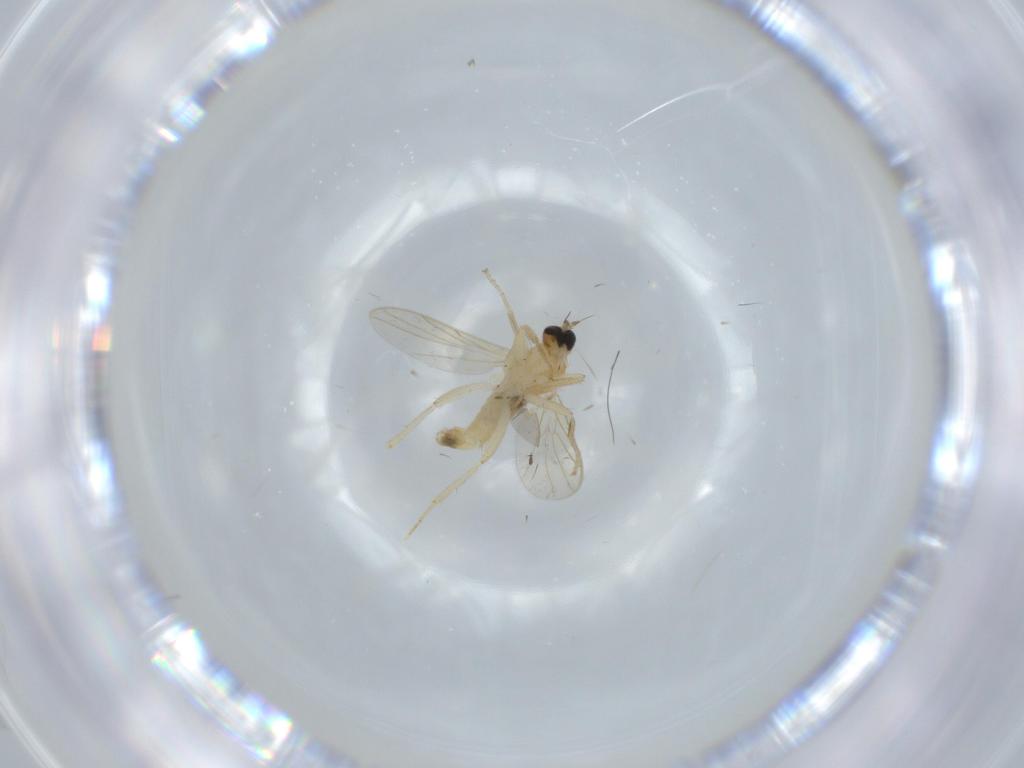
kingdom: Animalia
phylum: Arthropoda
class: Insecta
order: Diptera
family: Hybotidae
